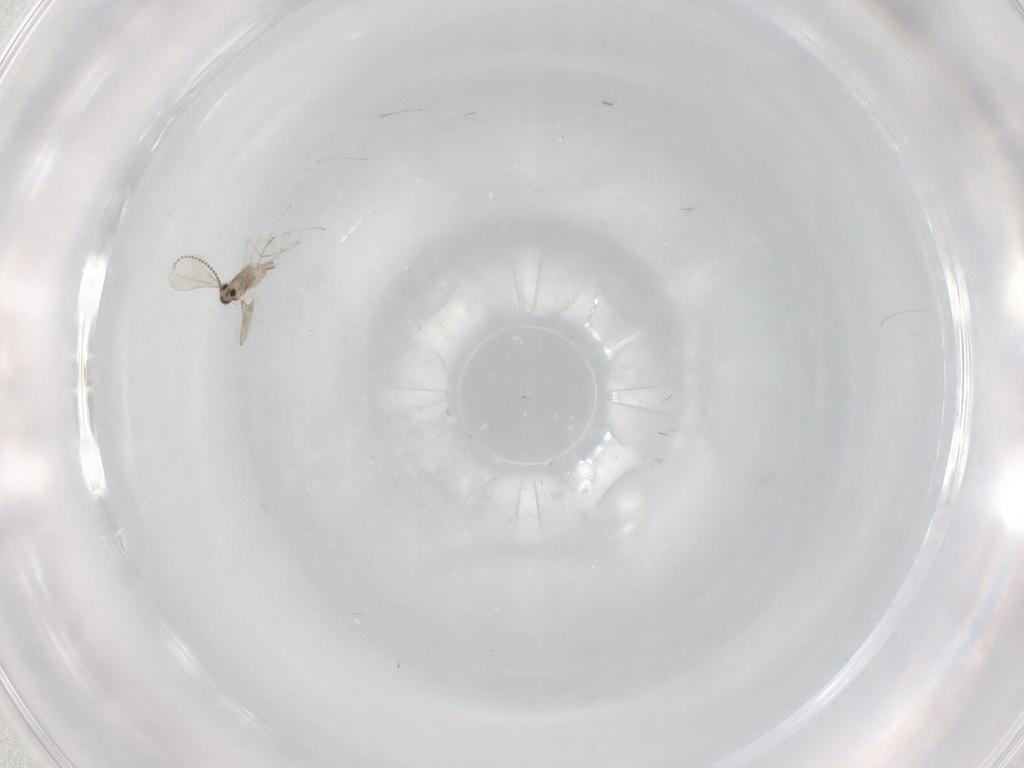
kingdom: Animalia
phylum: Arthropoda
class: Insecta
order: Diptera
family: Cecidomyiidae
